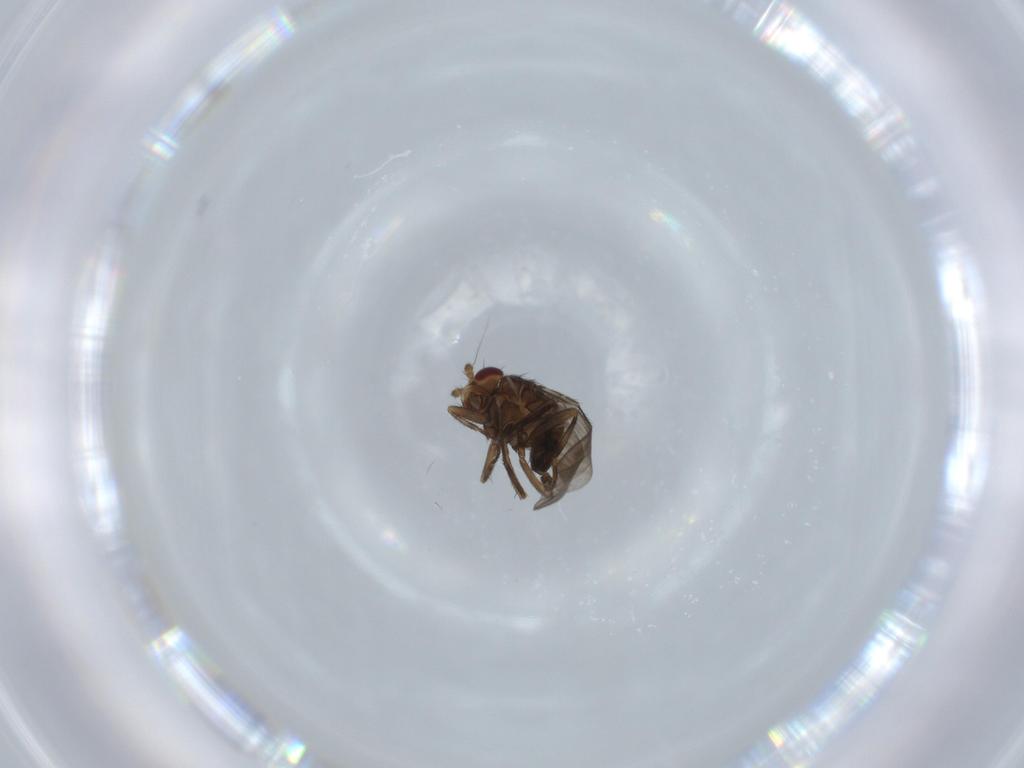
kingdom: Animalia
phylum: Arthropoda
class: Insecta
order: Diptera
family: Sphaeroceridae
